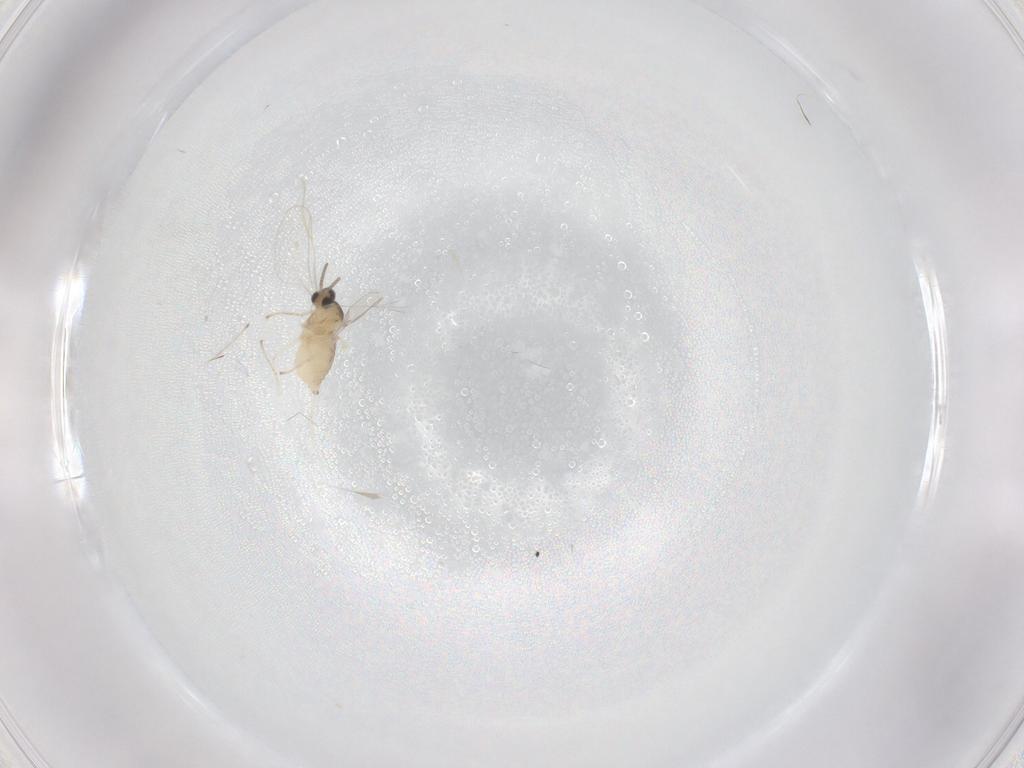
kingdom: Animalia
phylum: Arthropoda
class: Insecta
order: Diptera
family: Cecidomyiidae
